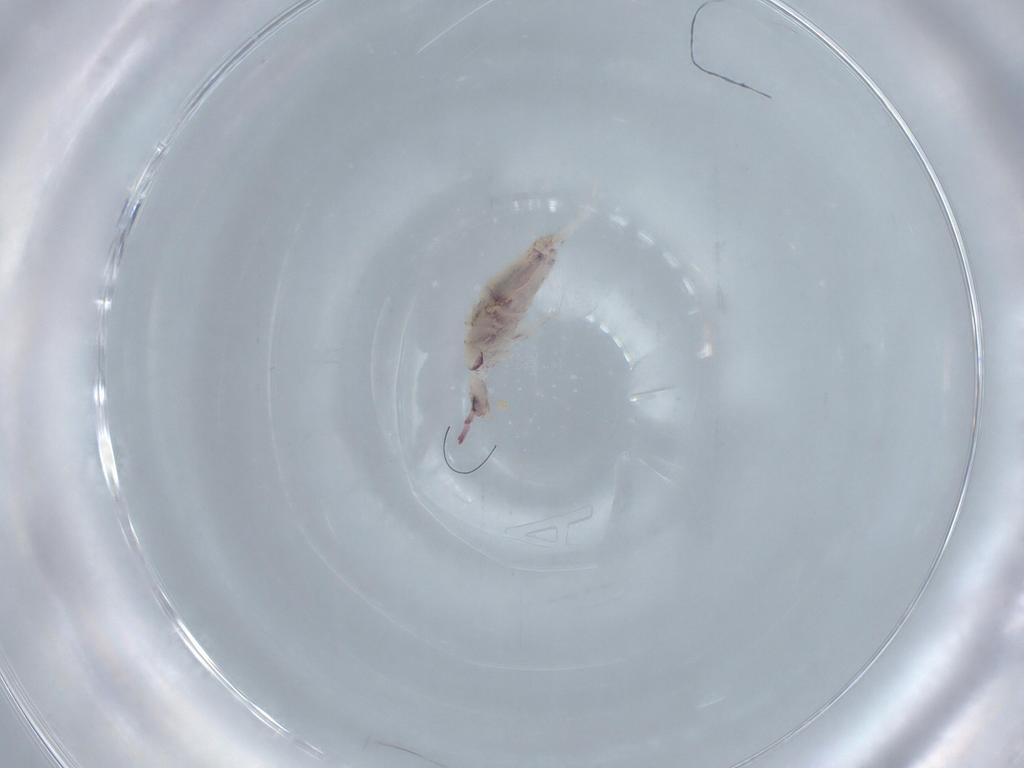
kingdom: Animalia
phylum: Arthropoda
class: Collembola
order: Poduromorpha
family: Hypogastruridae
